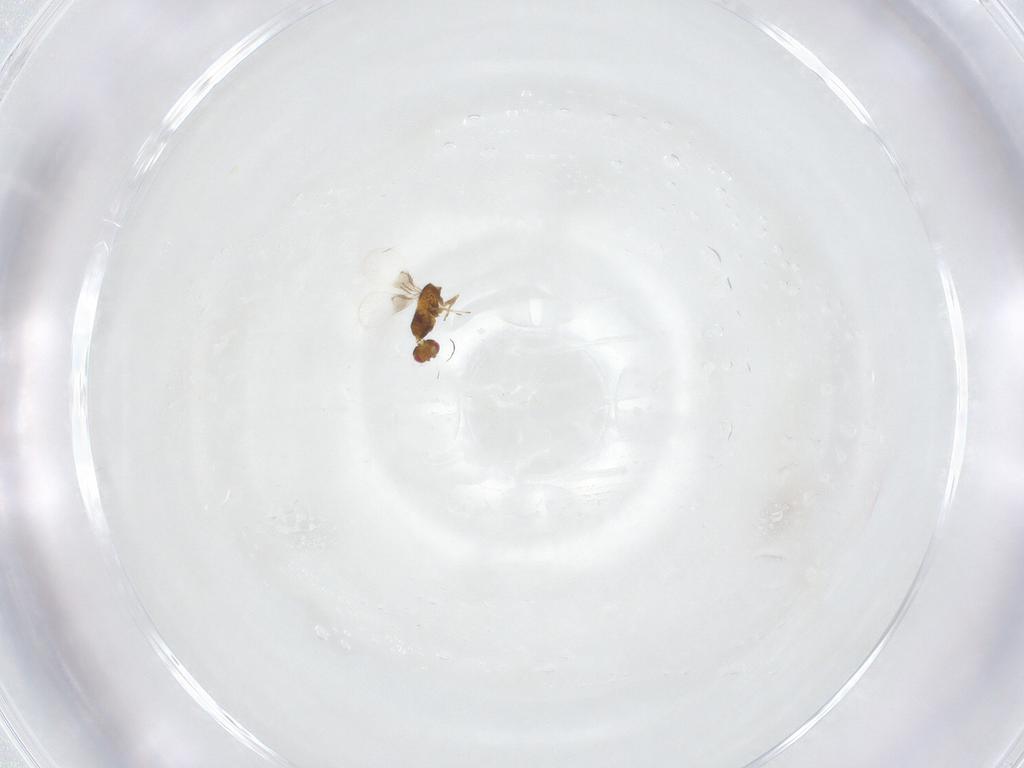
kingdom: Animalia
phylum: Arthropoda
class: Insecta
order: Hymenoptera
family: Trichogrammatidae
